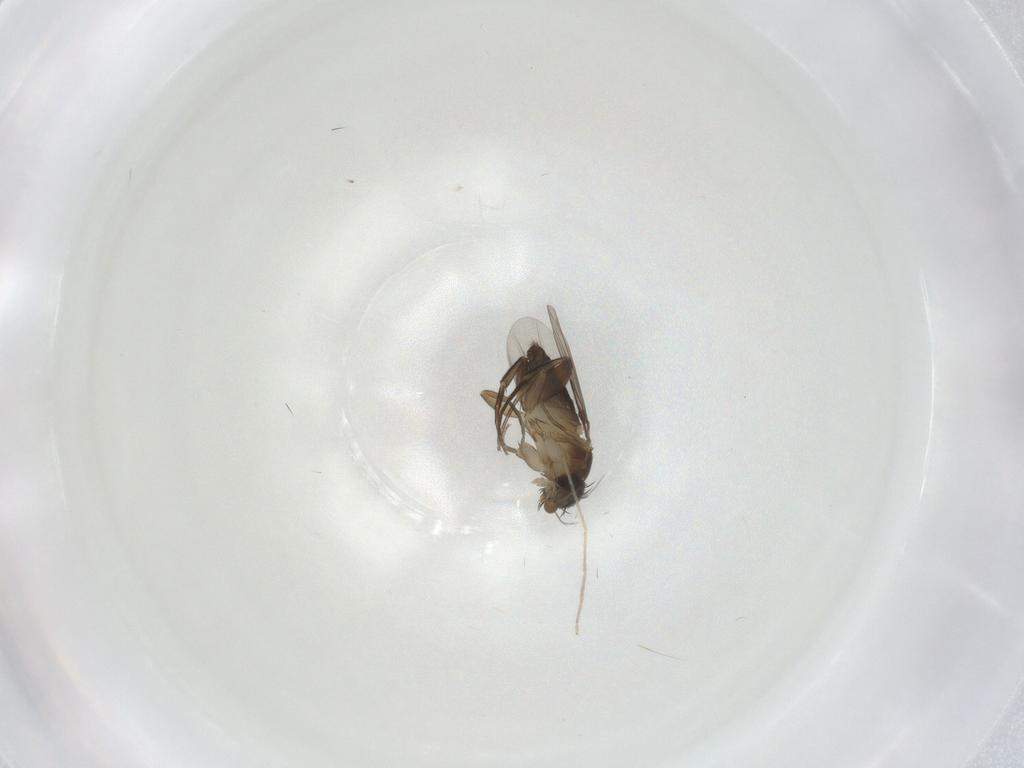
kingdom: Animalia
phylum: Arthropoda
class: Insecta
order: Diptera
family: Phoridae
